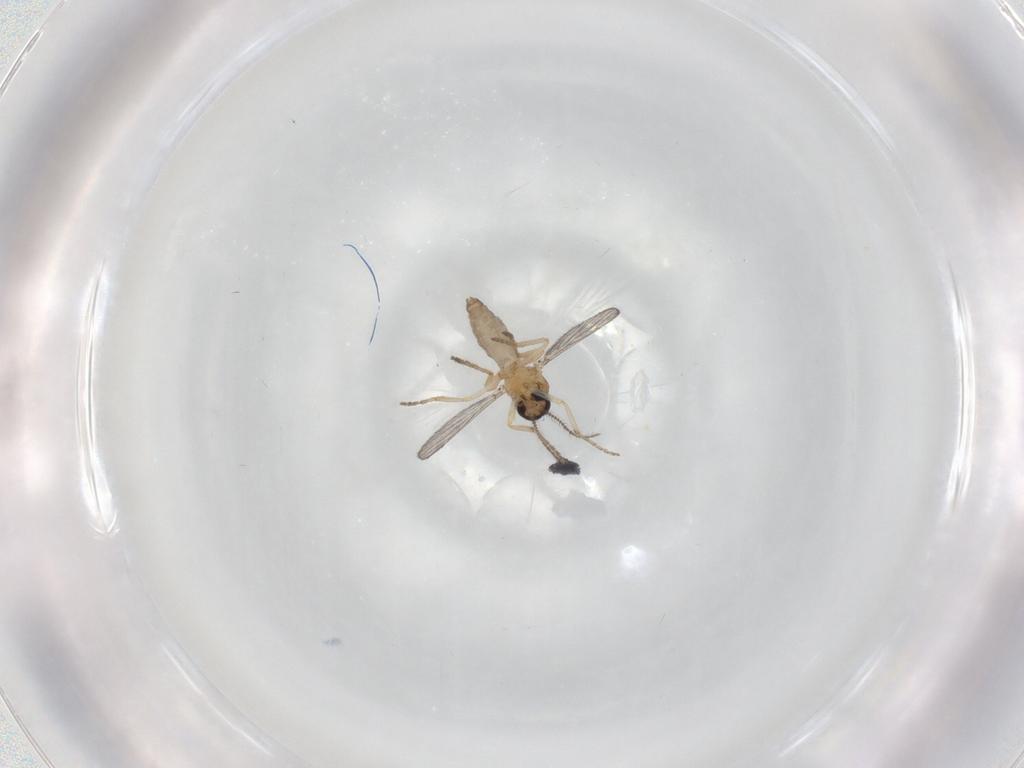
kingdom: Animalia
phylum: Arthropoda
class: Insecta
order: Diptera
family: Ceratopogonidae
